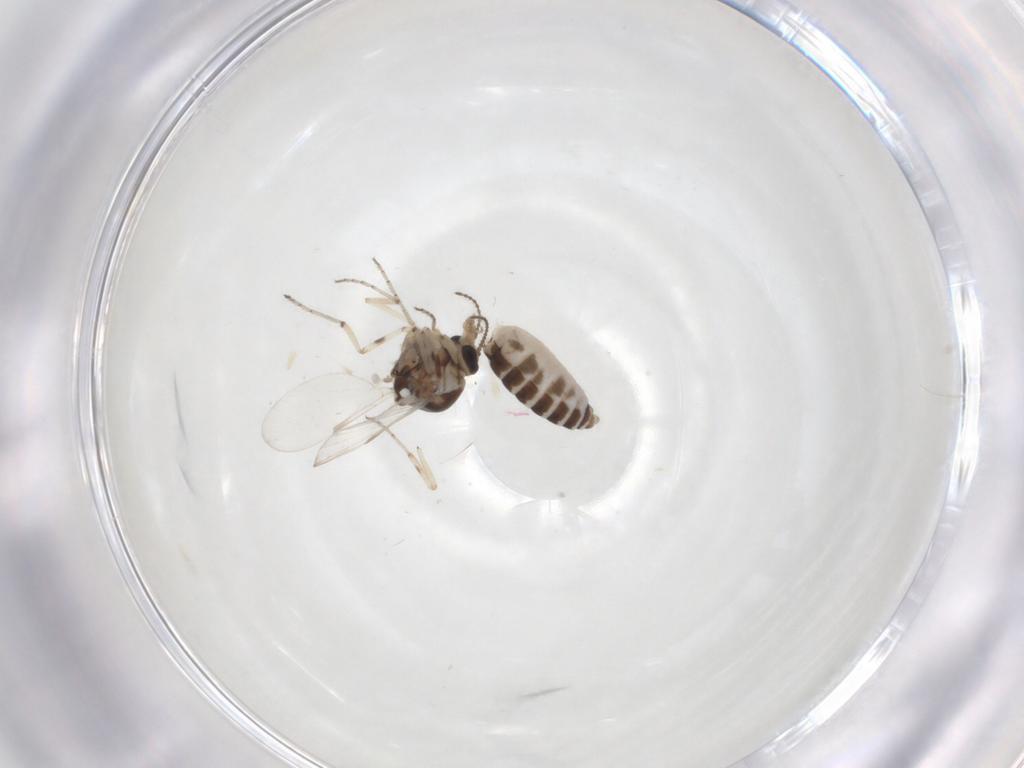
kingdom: Animalia
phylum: Arthropoda
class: Insecta
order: Diptera
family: Ceratopogonidae
